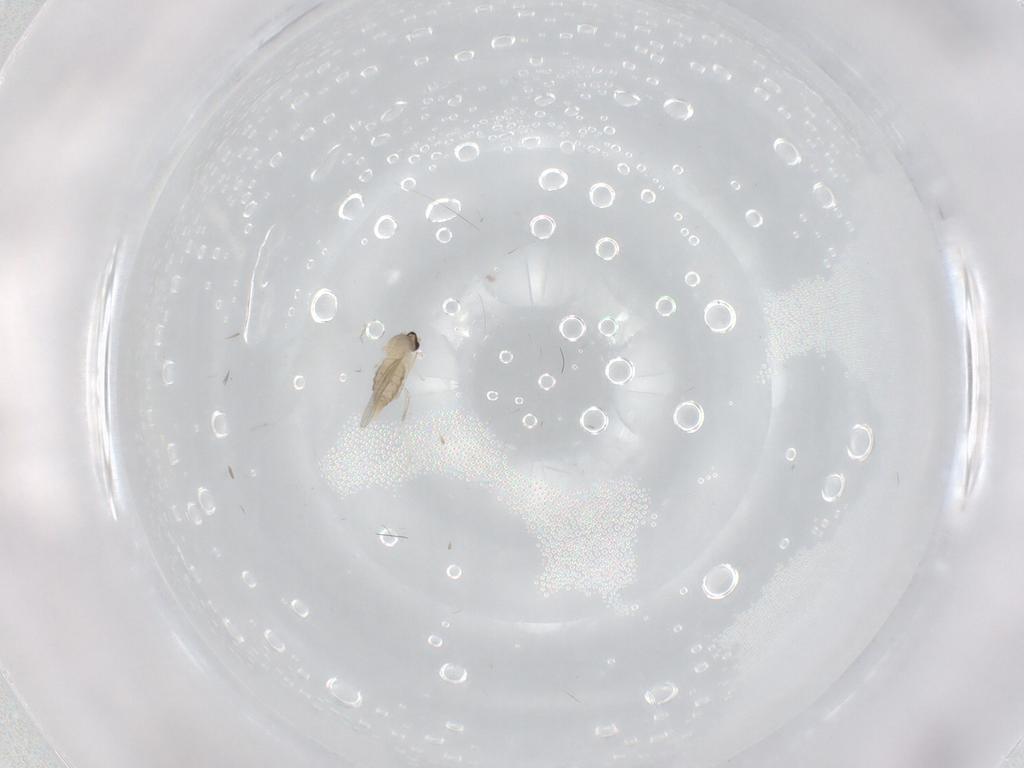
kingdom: Animalia
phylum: Arthropoda
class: Insecta
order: Diptera
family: Cecidomyiidae
